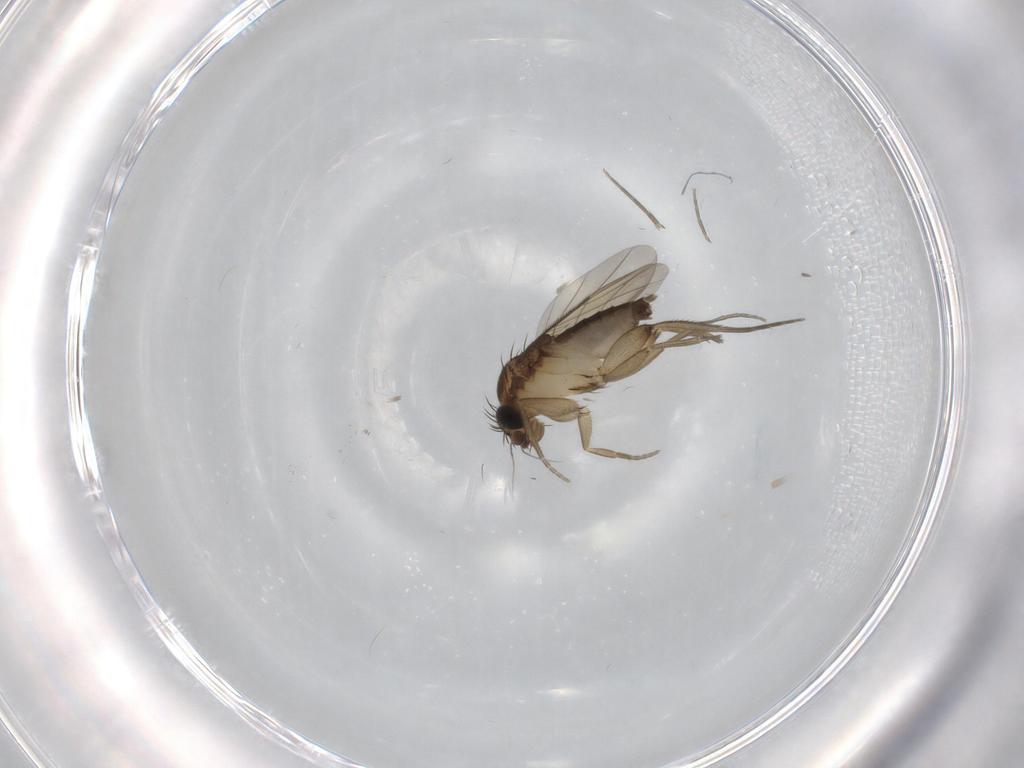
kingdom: Animalia
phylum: Arthropoda
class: Insecta
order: Diptera
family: Phoridae
